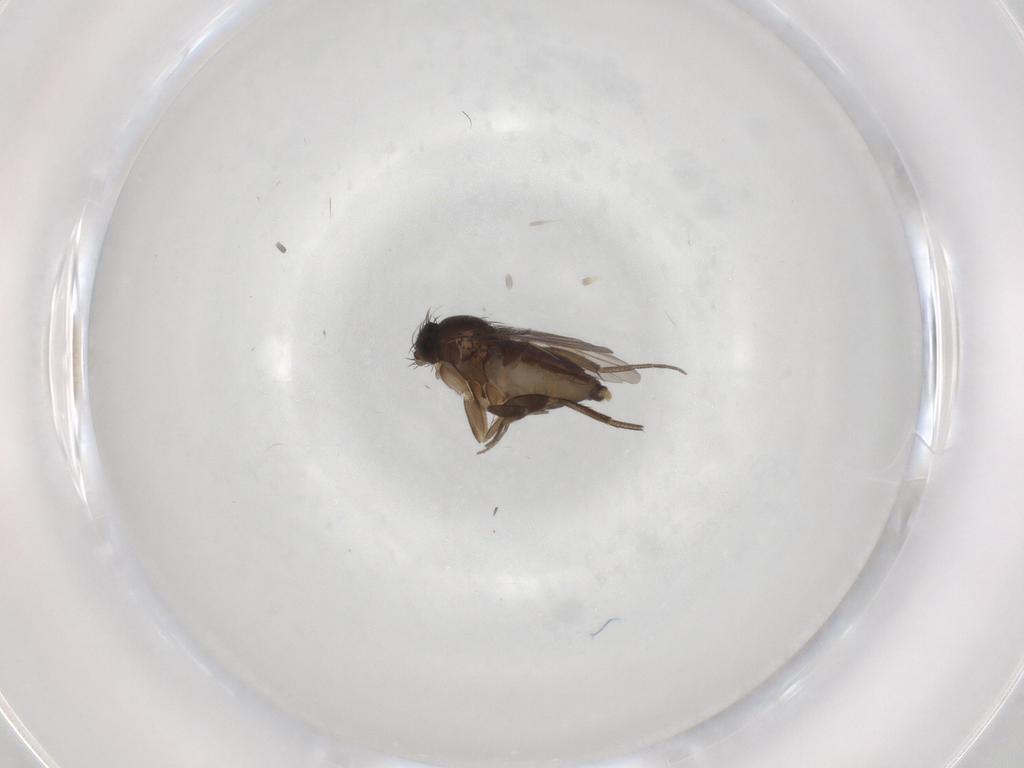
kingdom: Animalia
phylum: Arthropoda
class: Insecta
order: Diptera
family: Phoridae
